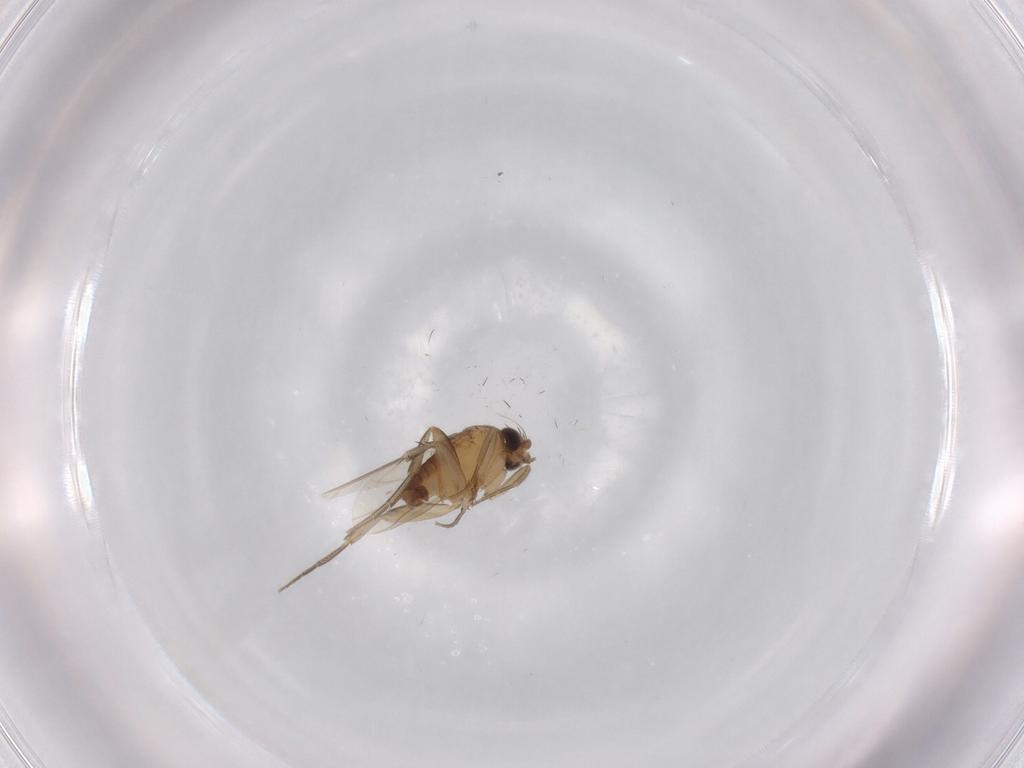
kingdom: Animalia
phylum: Arthropoda
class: Insecta
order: Diptera
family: Ceratopogonidae
